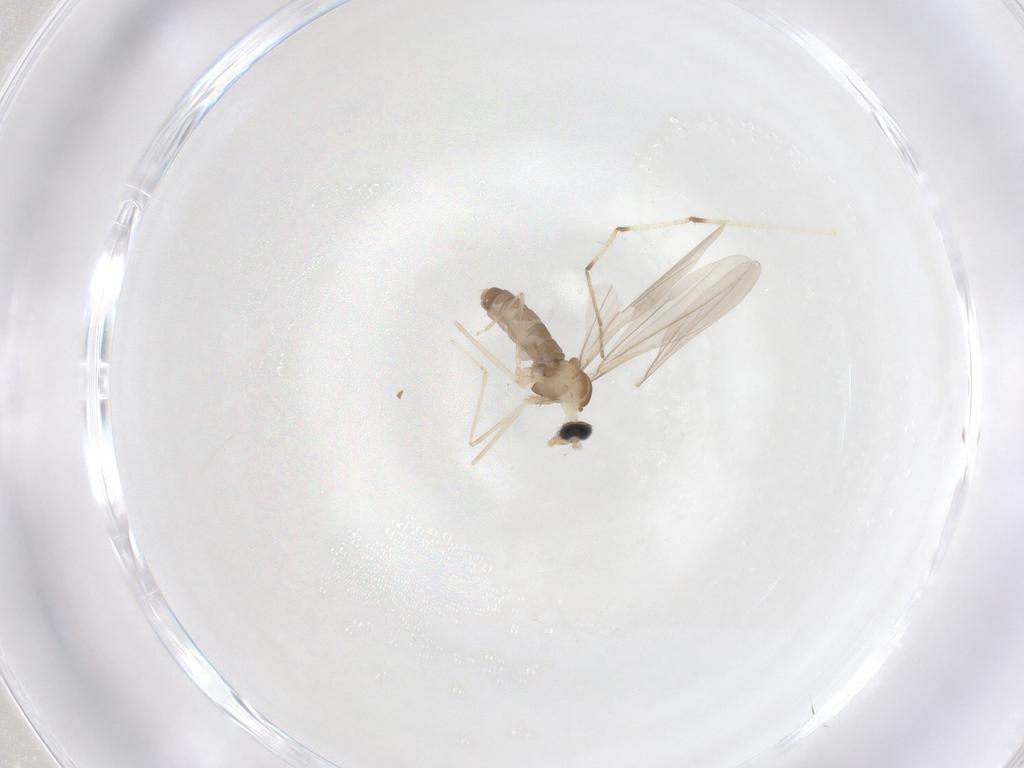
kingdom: Animalia
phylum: Arthropoda
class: Insecta
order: Diptera
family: Cecidomyiidae
